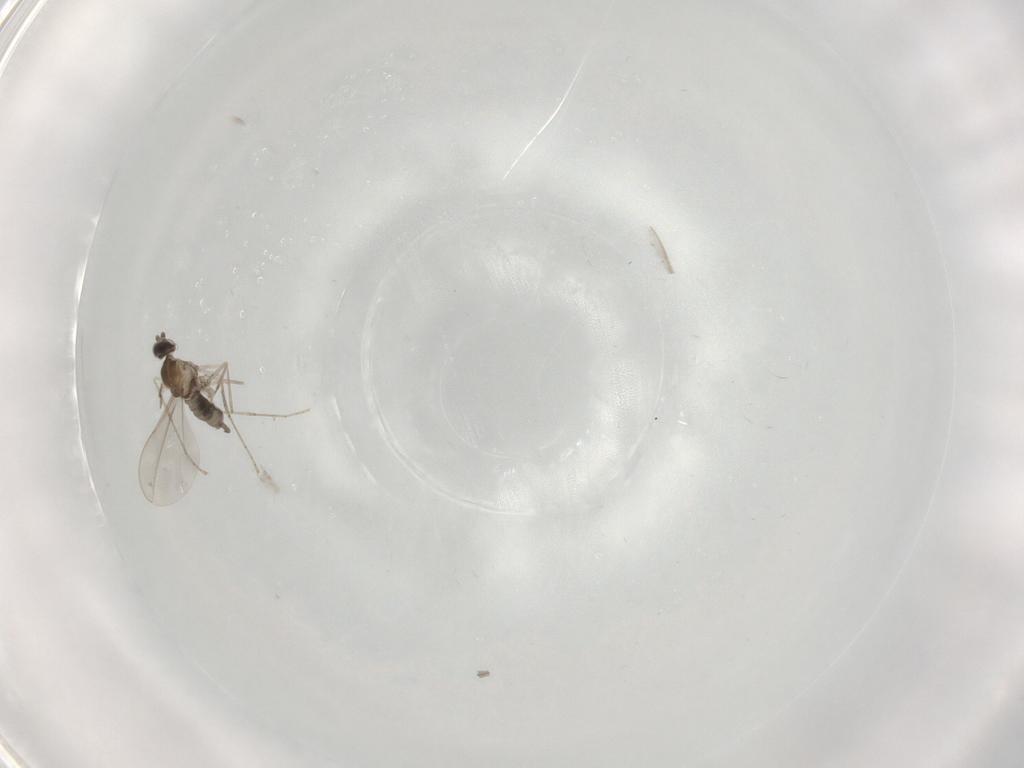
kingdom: Animalia
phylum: Arthropoda
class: Insecta
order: Diptera
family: Cecidomyiidae
